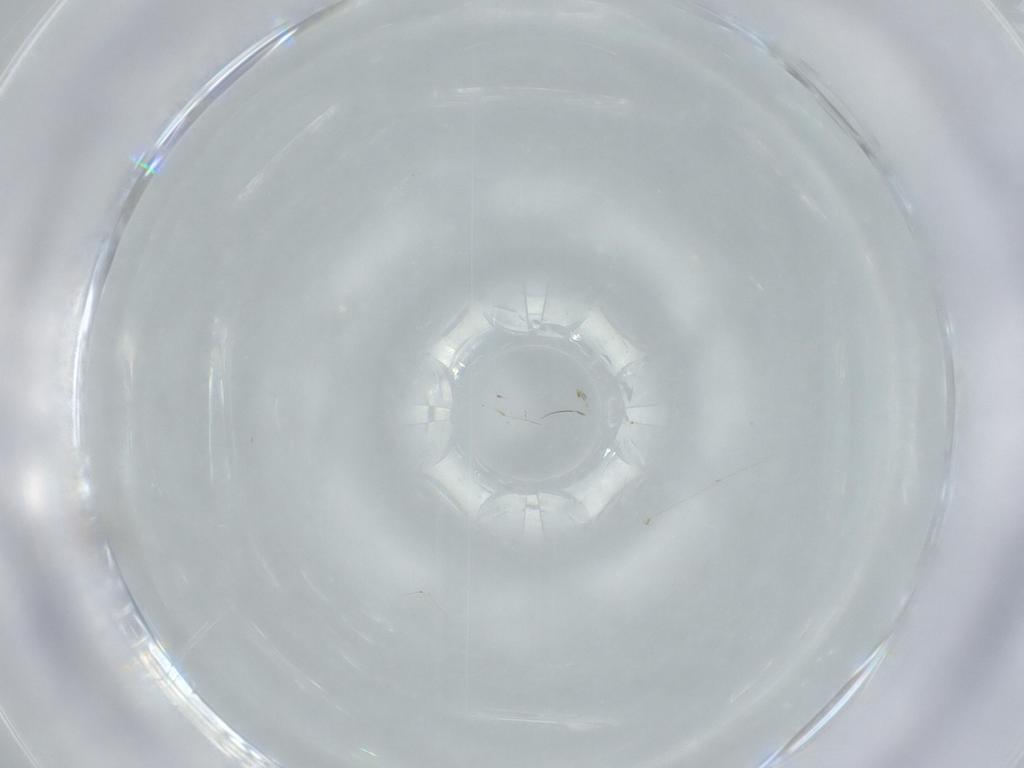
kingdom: Animalia
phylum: Arthropoda
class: Insecta
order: Psocodea
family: Liposcelididae
